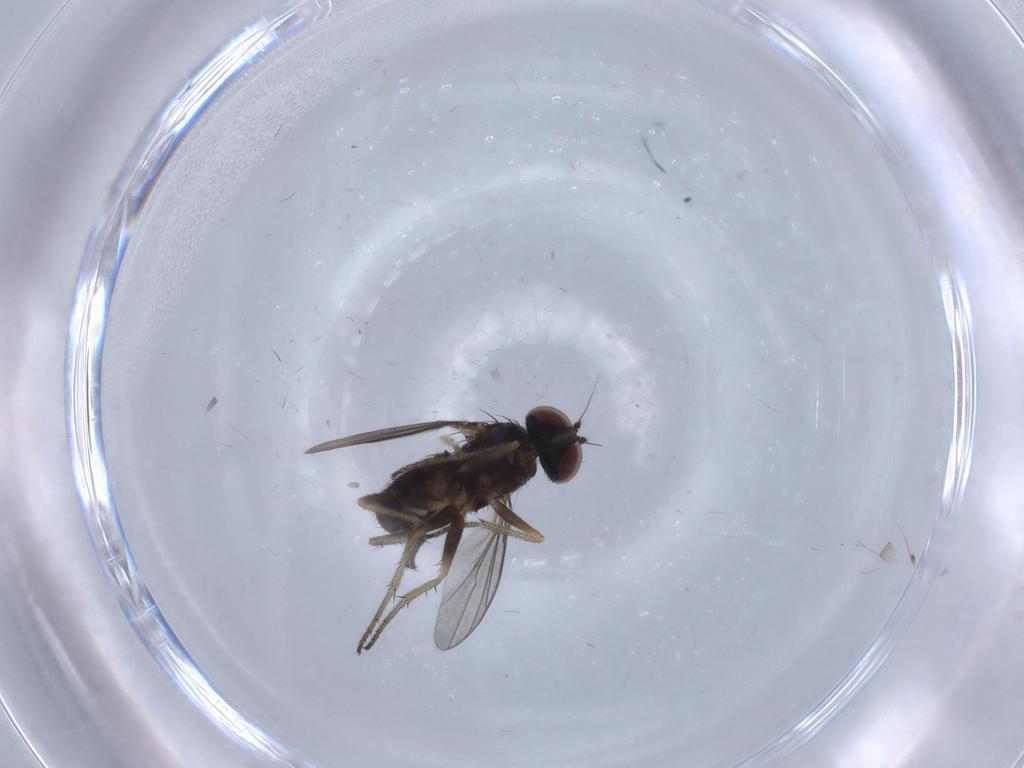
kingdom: Animalia
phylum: Arthropoda
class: Insecta
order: Diptera
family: Dolichopodidae
